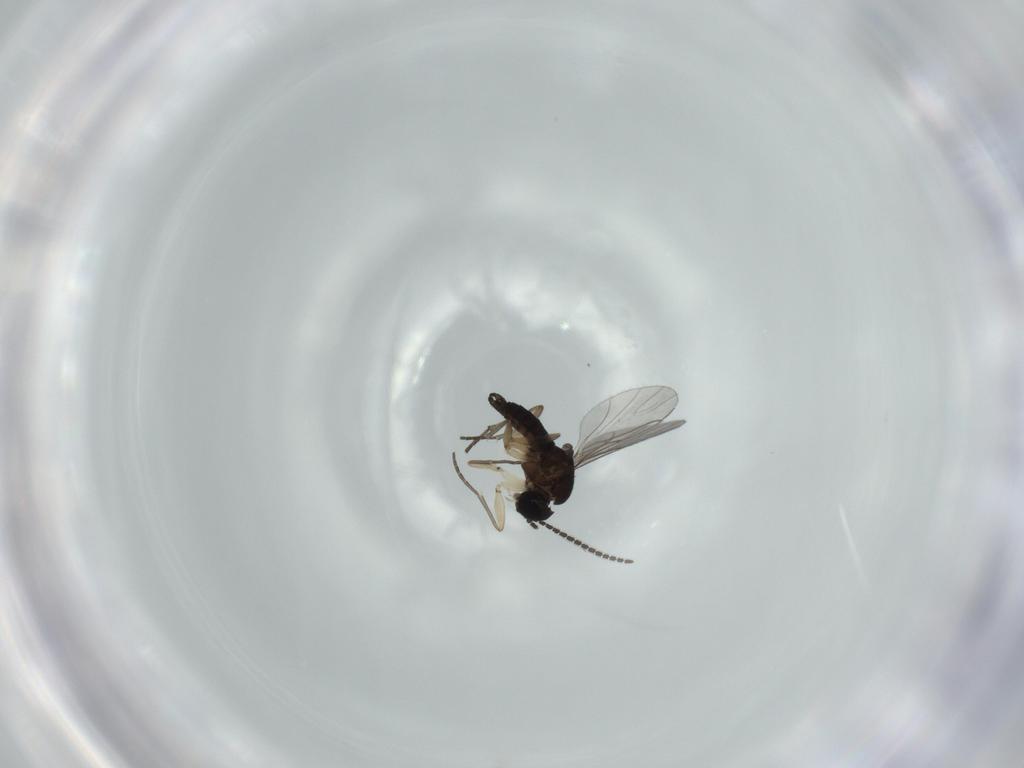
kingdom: Animalia
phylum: Arthropoda
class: Insecta
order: Diptera
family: Sciaridae
